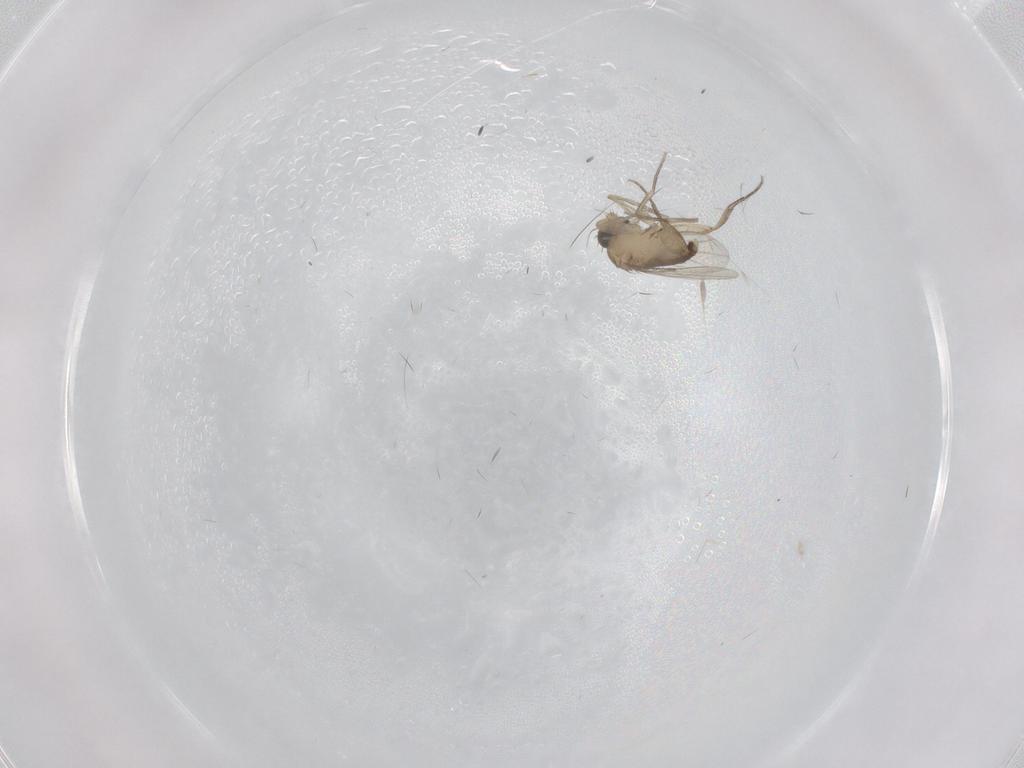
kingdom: Animalia
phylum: Arthropoda
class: Insecta
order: Diptera
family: Phoridae
